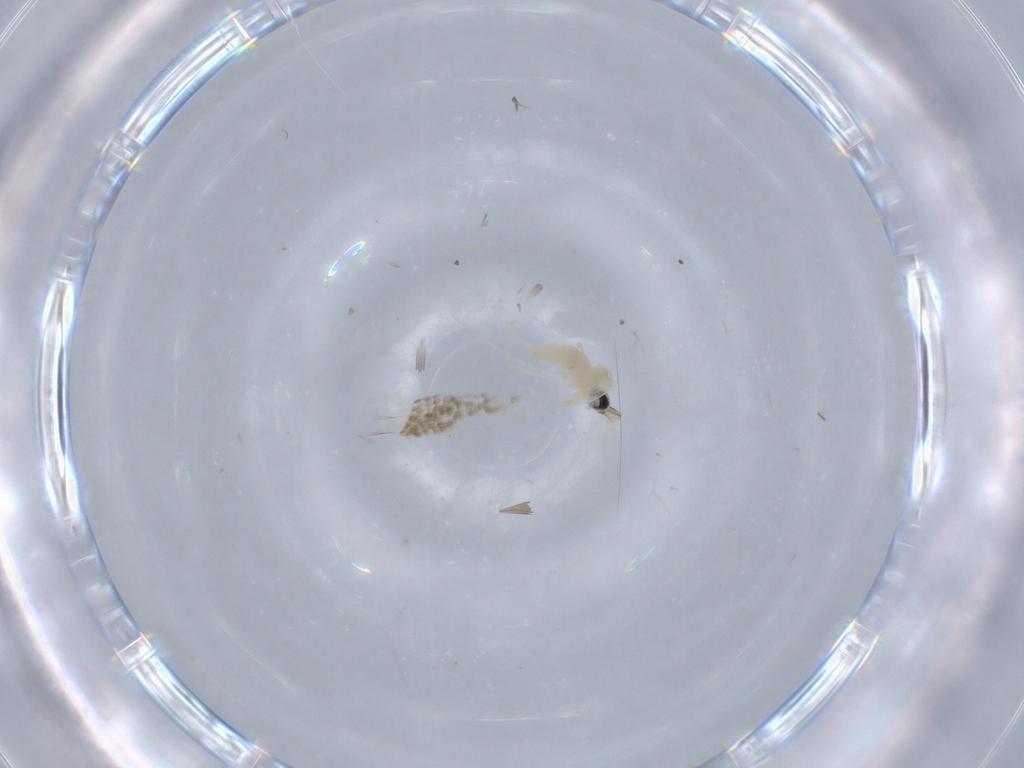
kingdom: Animalia
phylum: Arthropoda
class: Insecta
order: Diptera
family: Cecidomyiidae
